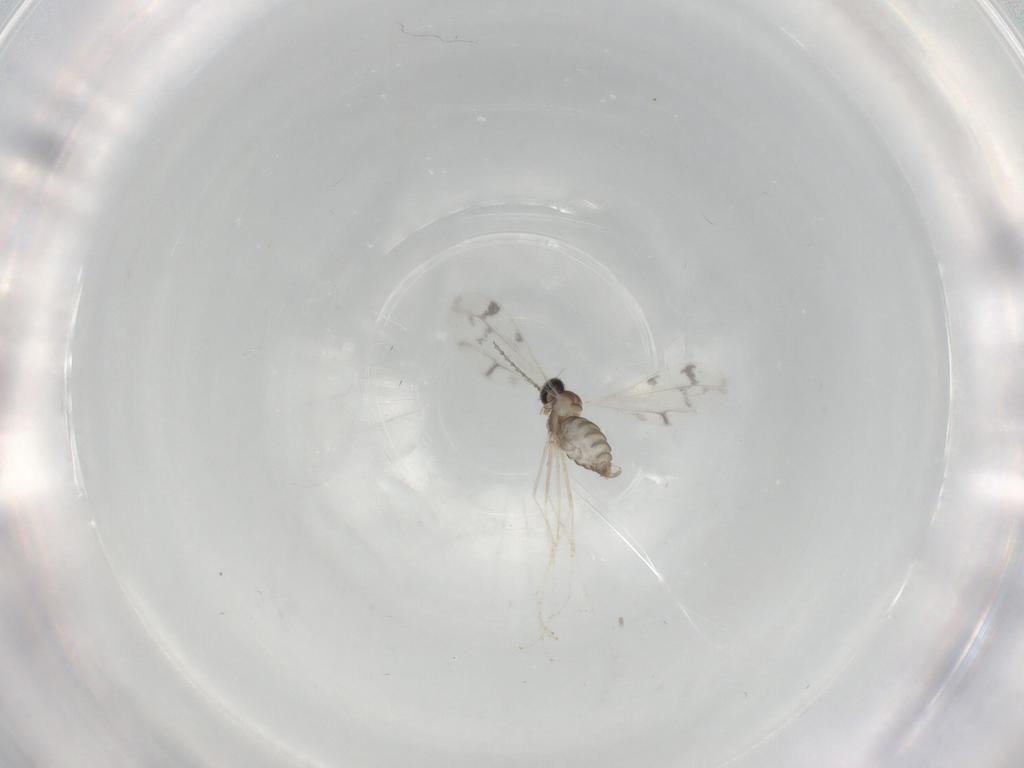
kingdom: Animalia
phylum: Arthropoda
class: Insecta
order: Diptera
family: Cecidomyiidae
